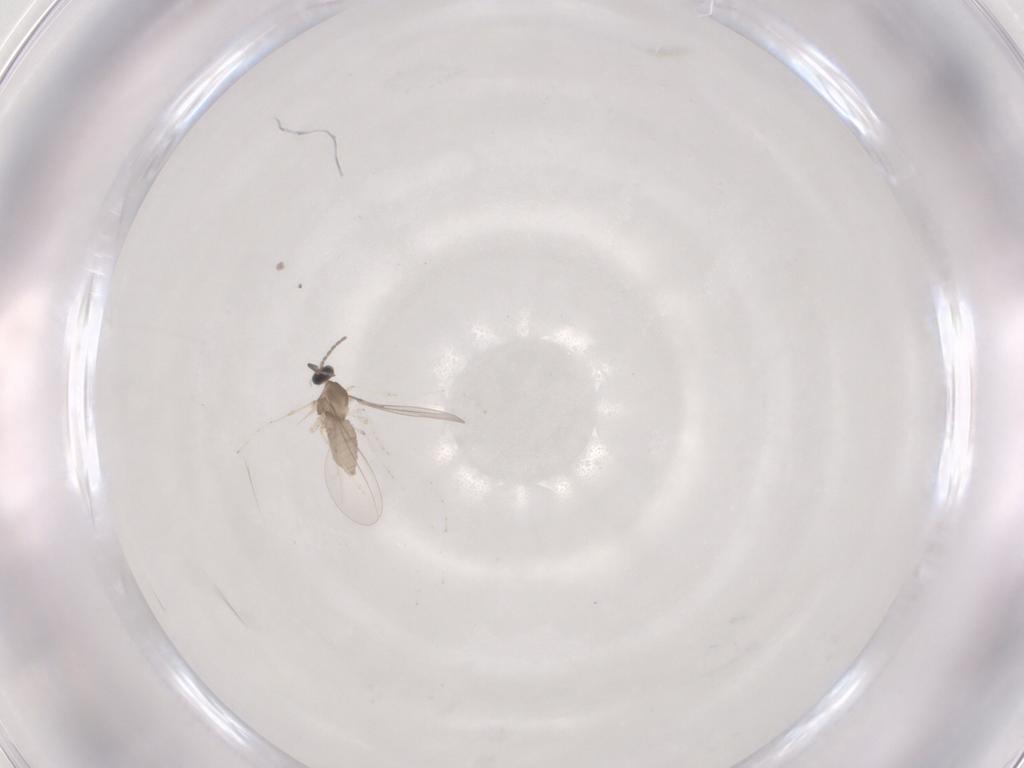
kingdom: Animalia
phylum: Arthropoda
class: Insecta
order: Diptera
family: Cecidomyiidae
